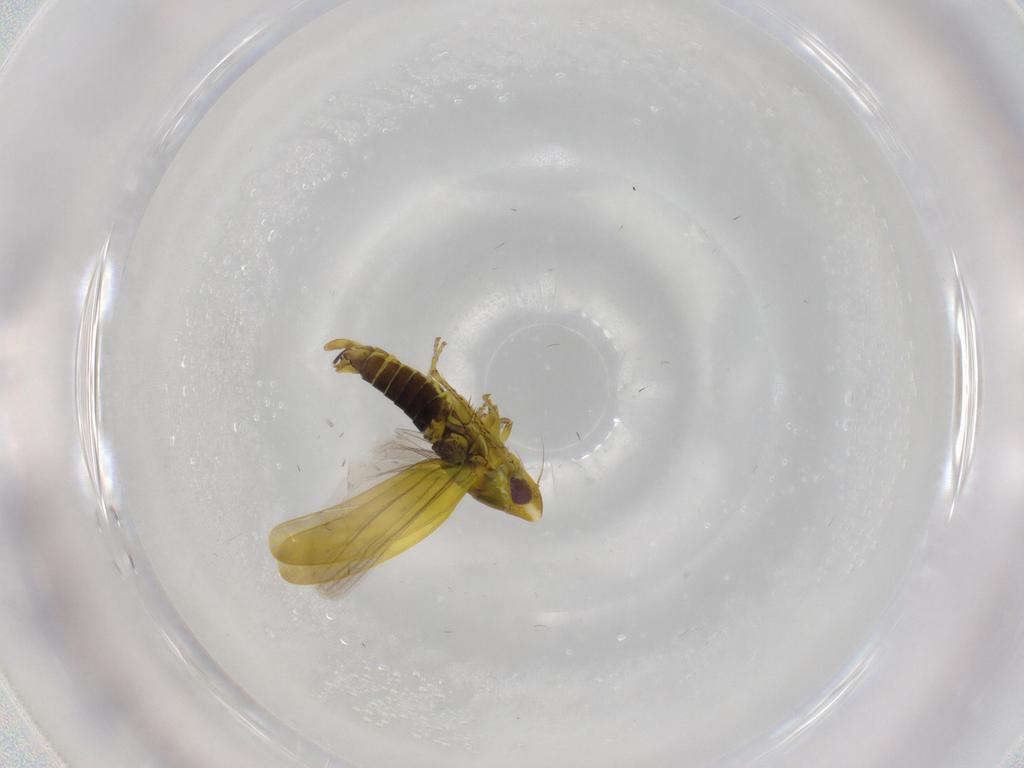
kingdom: Animalia
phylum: Arthropoda
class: Insecta
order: Hemiptera
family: Cicadellidae
